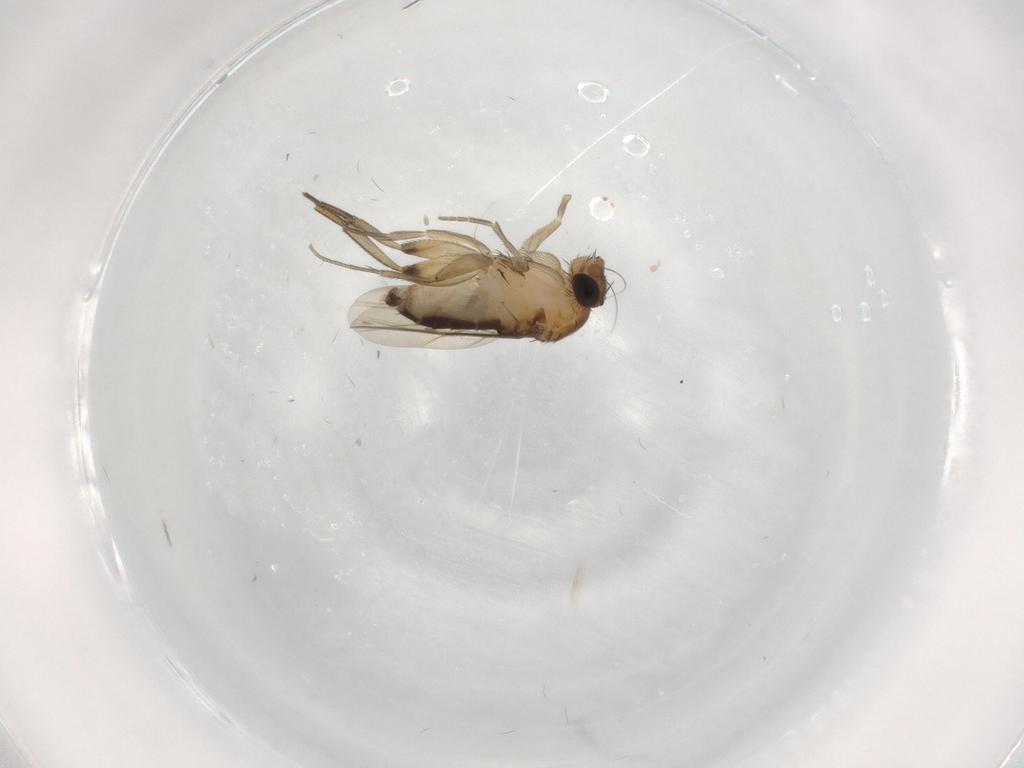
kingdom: Animalia
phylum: Arthropoda
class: Insecta
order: Diptera
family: Phoridae
